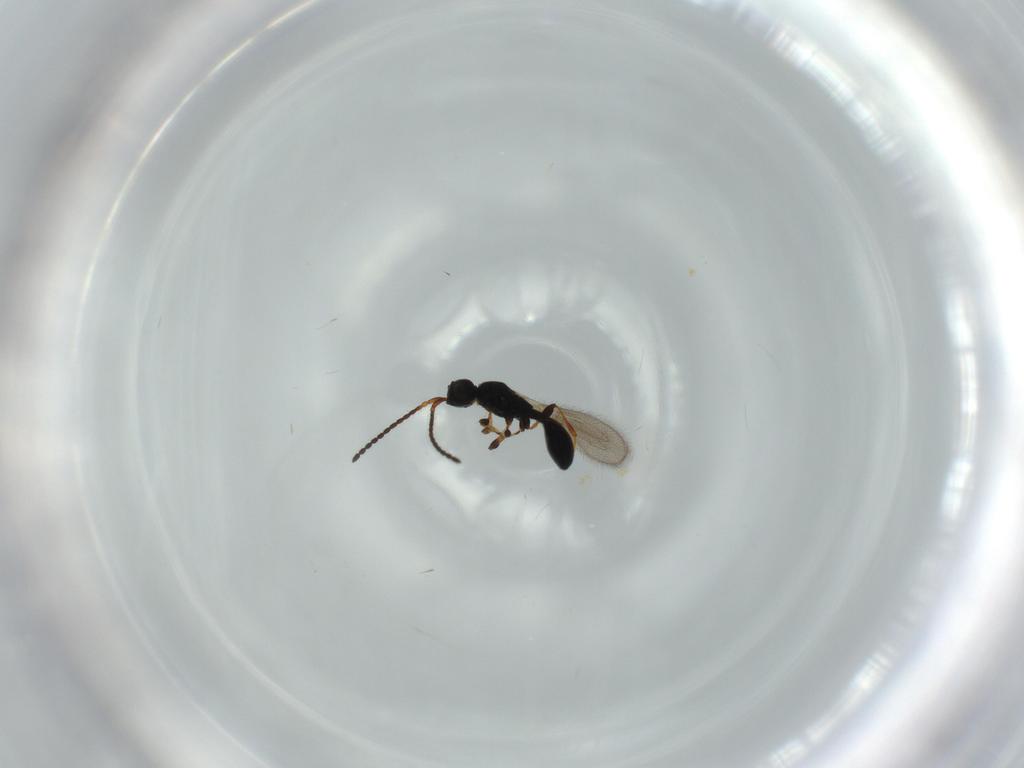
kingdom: Animalia
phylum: Arthropoda
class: Insecta
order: Hymenoptera
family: Diapriidae
